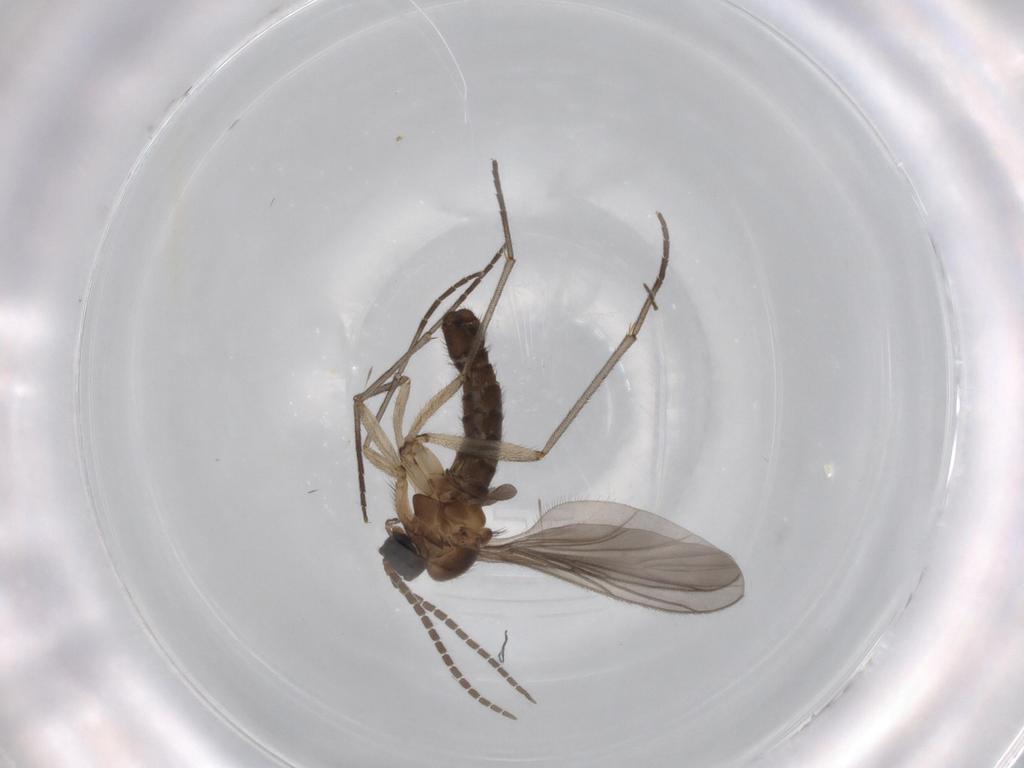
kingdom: Animalia
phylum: Arthropoda
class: Insecta
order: Diptera
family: Sciaridae
